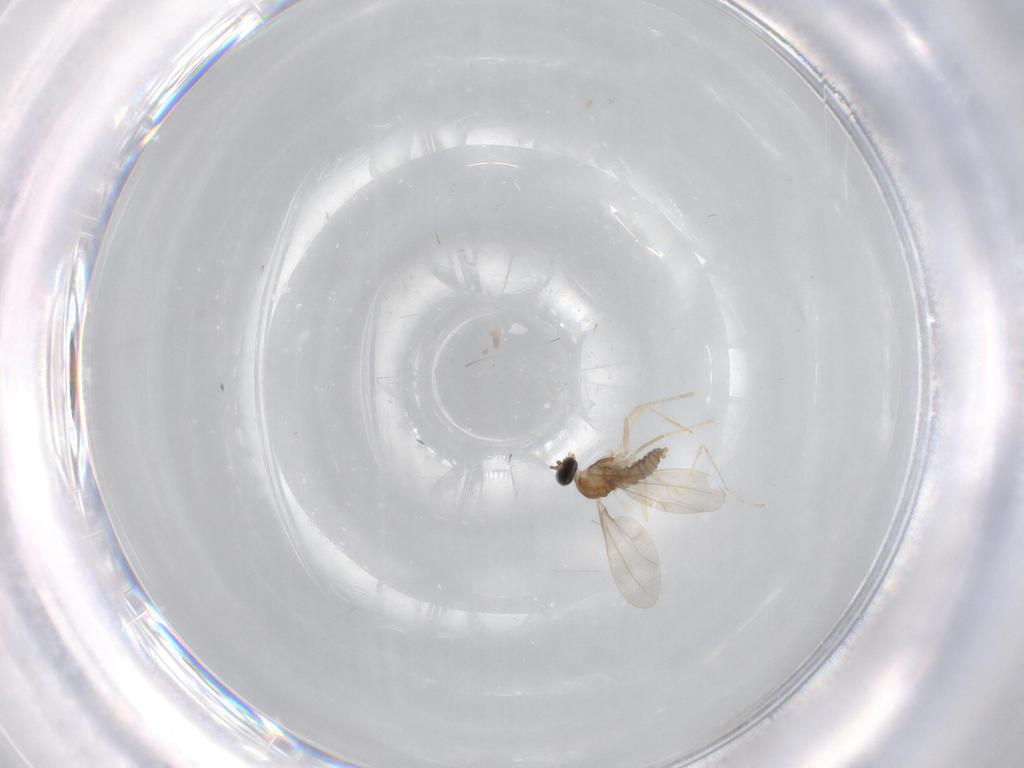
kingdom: Animalia
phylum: Arthropoda
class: Insecta
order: Diptera
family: Cecidomyiidae
